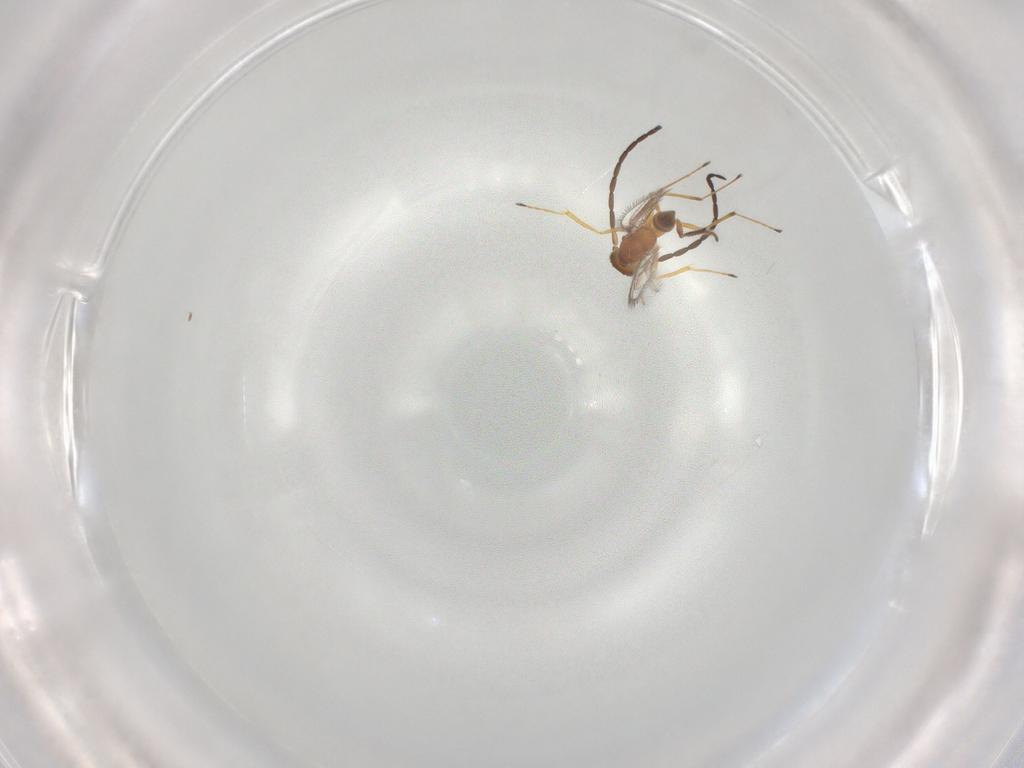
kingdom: Animalia
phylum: Arthropoda
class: Insecta
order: Hymenoptera
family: Mymaridae
